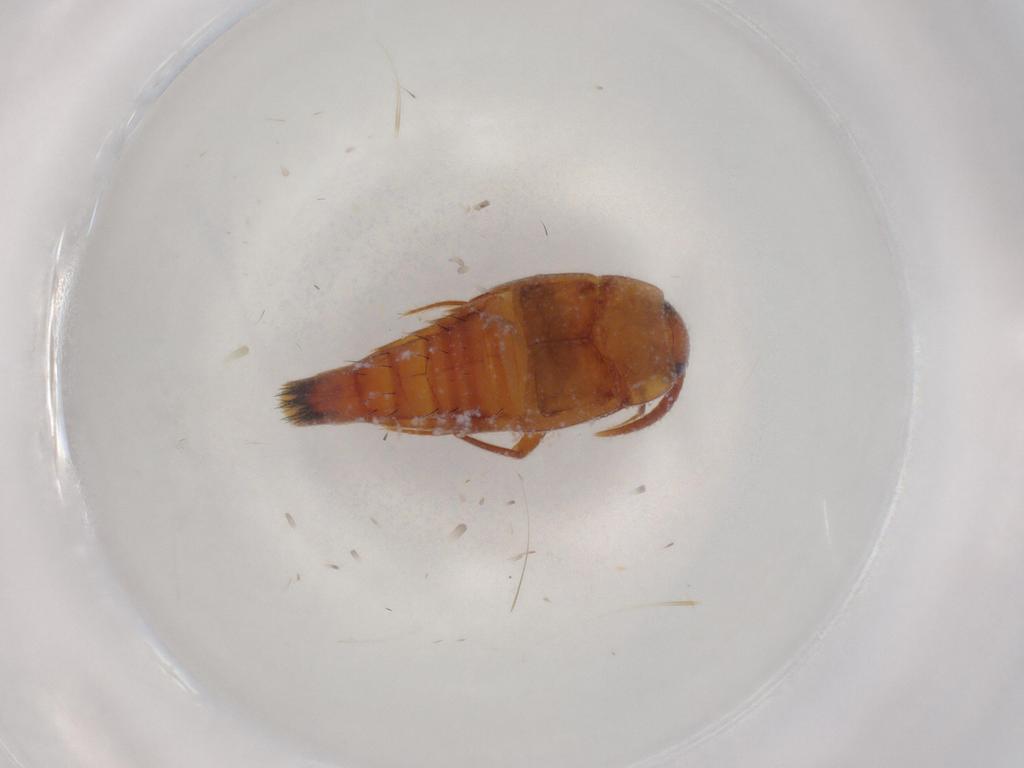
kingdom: Animalia
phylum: Arthropoda
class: Insecta
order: Coleoptera
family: Staphylinidae
